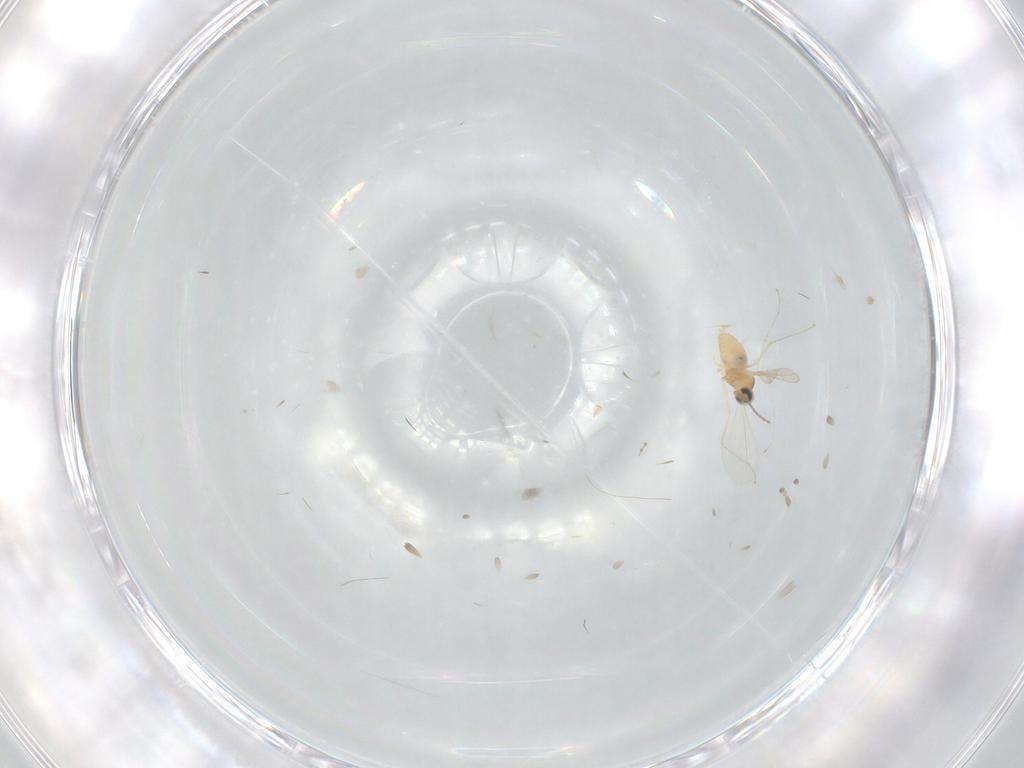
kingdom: Animalia
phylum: Arthropoda
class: Insecta
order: Diptera
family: Cecidomyiidae
